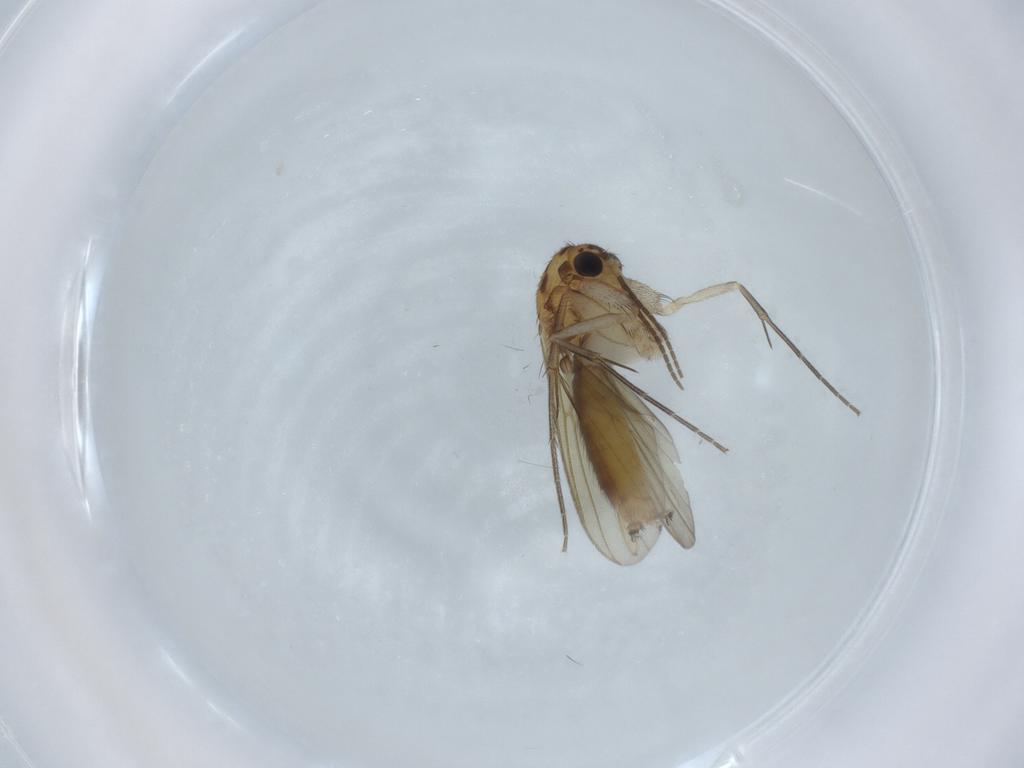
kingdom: Animalia
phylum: Arthropoda
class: Insecta
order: Diptera
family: Mycetophilidae
